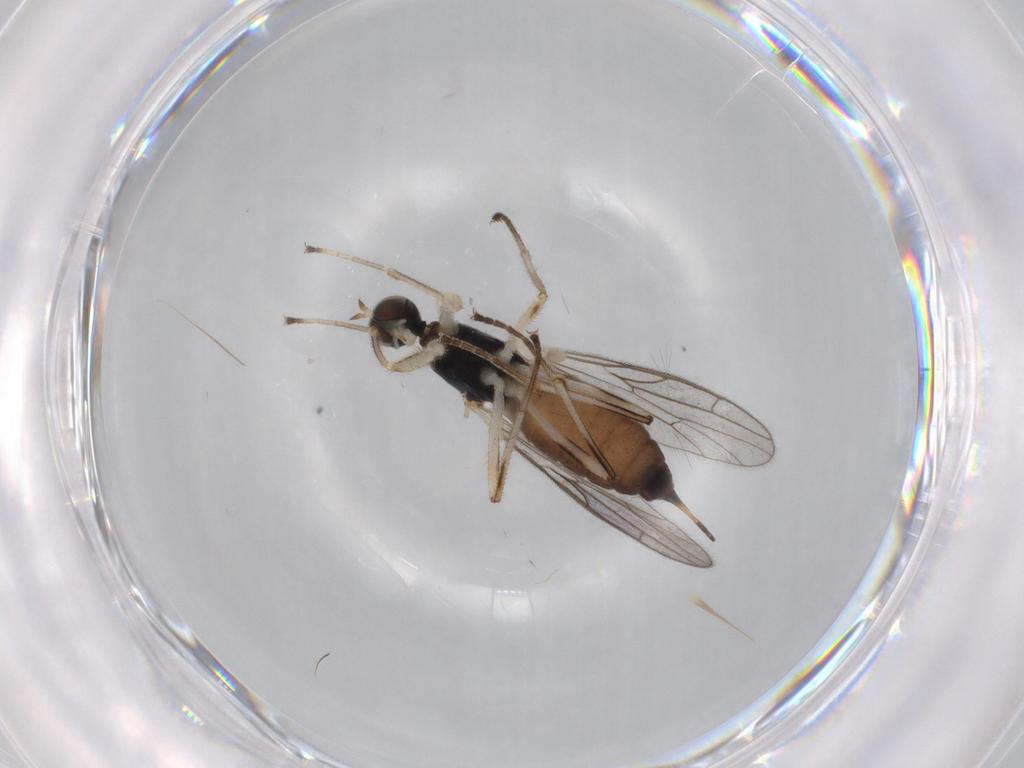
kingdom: Animalia
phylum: Arthropoda
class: Insecta
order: Diptera
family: Empididae
